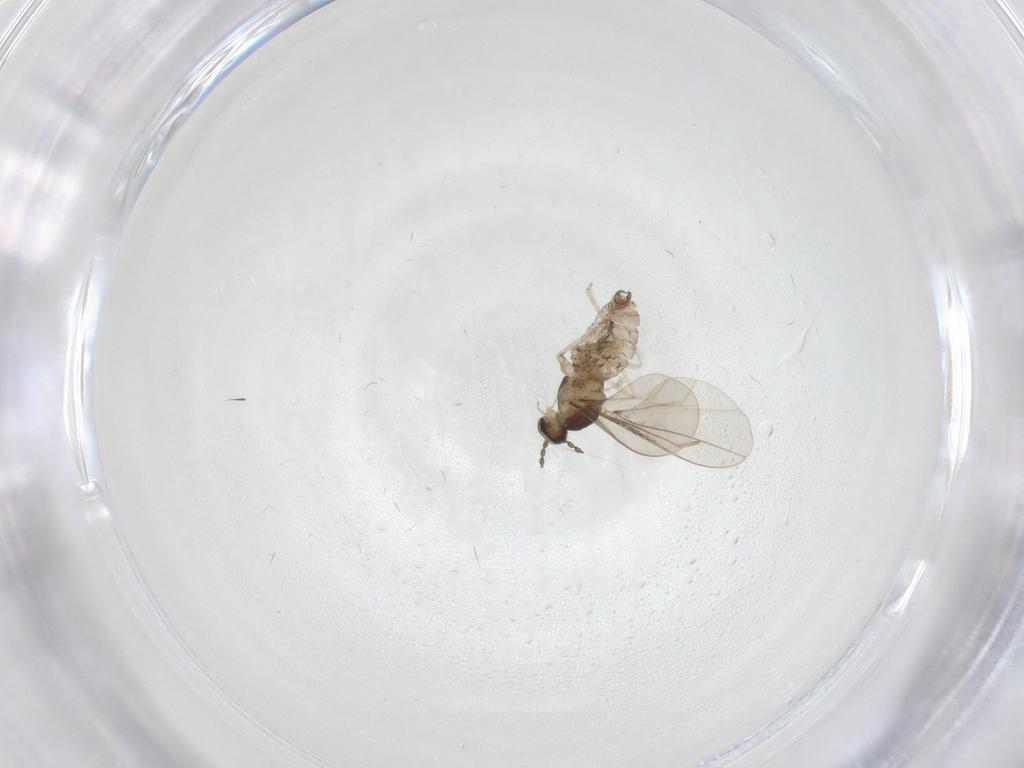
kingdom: Animalia
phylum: Arthropoda
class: Insecta
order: Diptera
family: Cecidomyiidae
